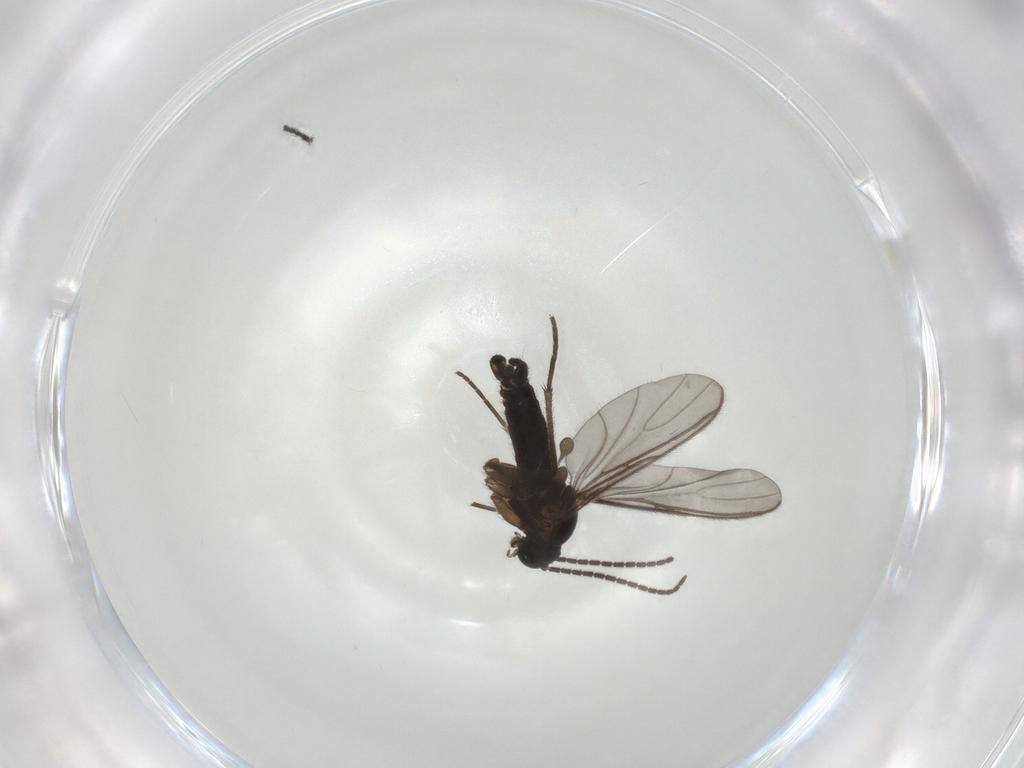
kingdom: Animalia
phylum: Arthropoda
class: Insecta
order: Diptera
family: Sciaridae
